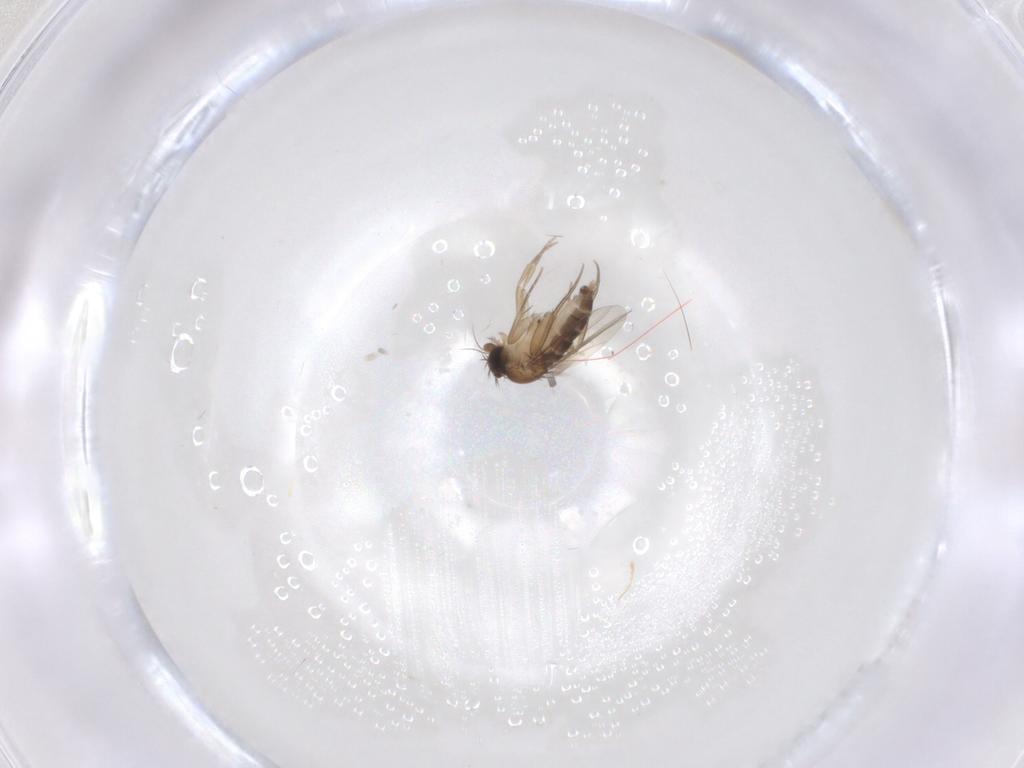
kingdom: Animalia
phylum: Arthropoda
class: Insecta
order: Diptera
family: Phoridae
